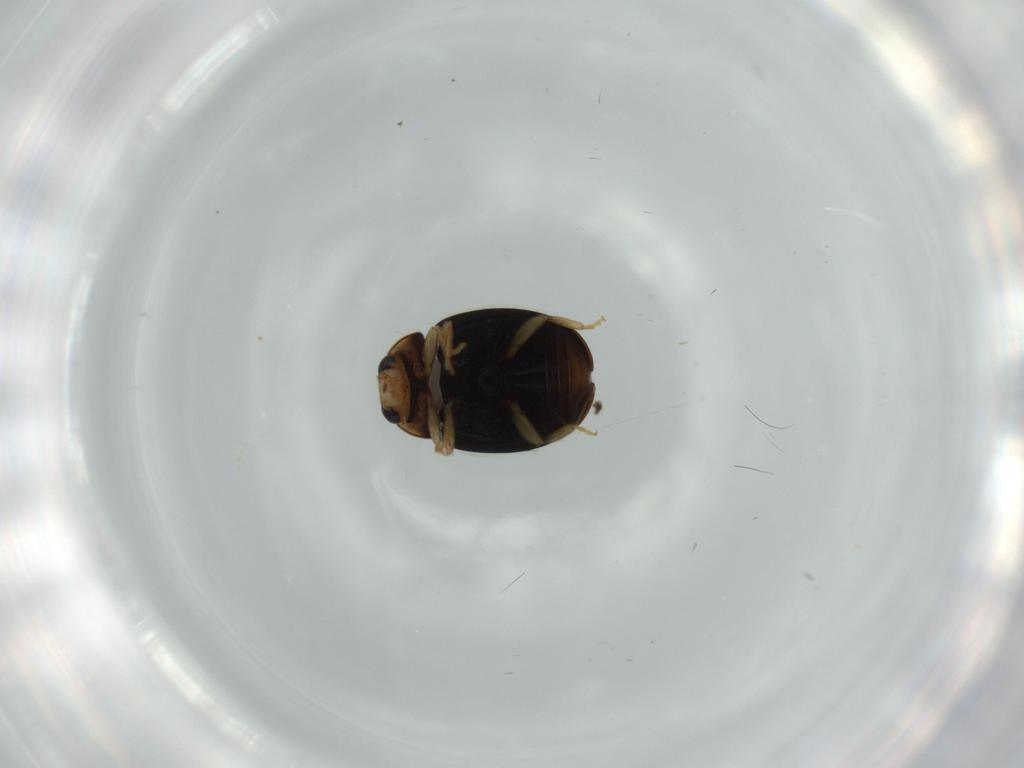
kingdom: Animalia
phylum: Arthropoda
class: Insecta
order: Coleoptera
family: Coccinellidae
